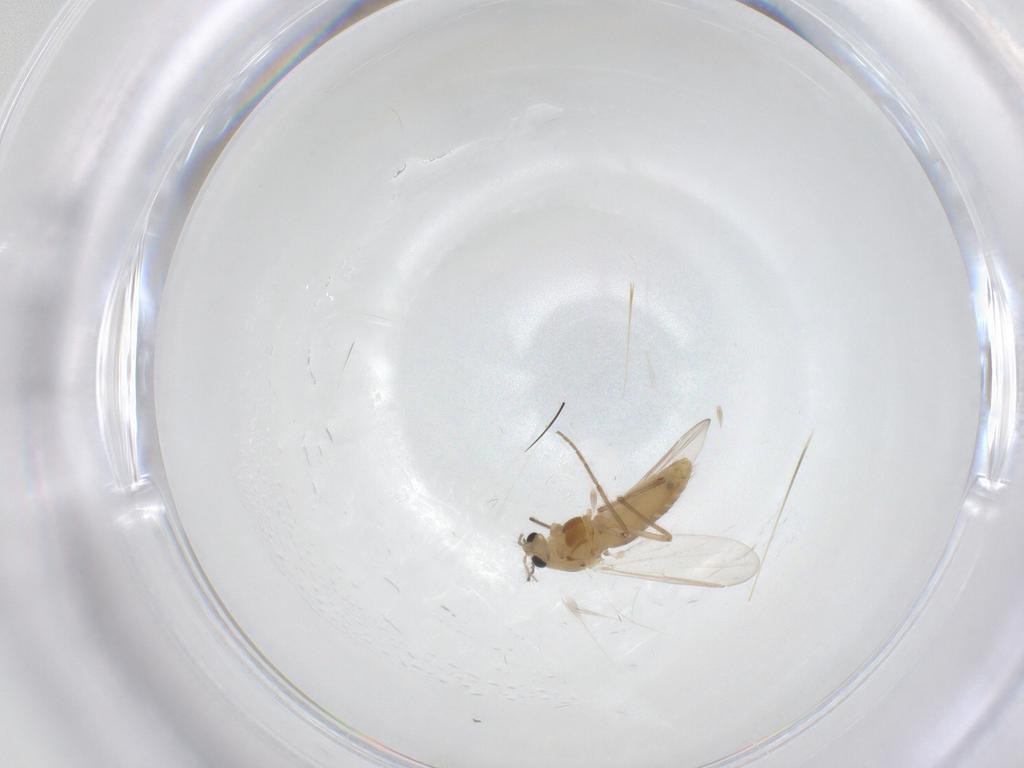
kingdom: Animalia
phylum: Arthropoda
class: Insecta
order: Diptera
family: Chironomidae
